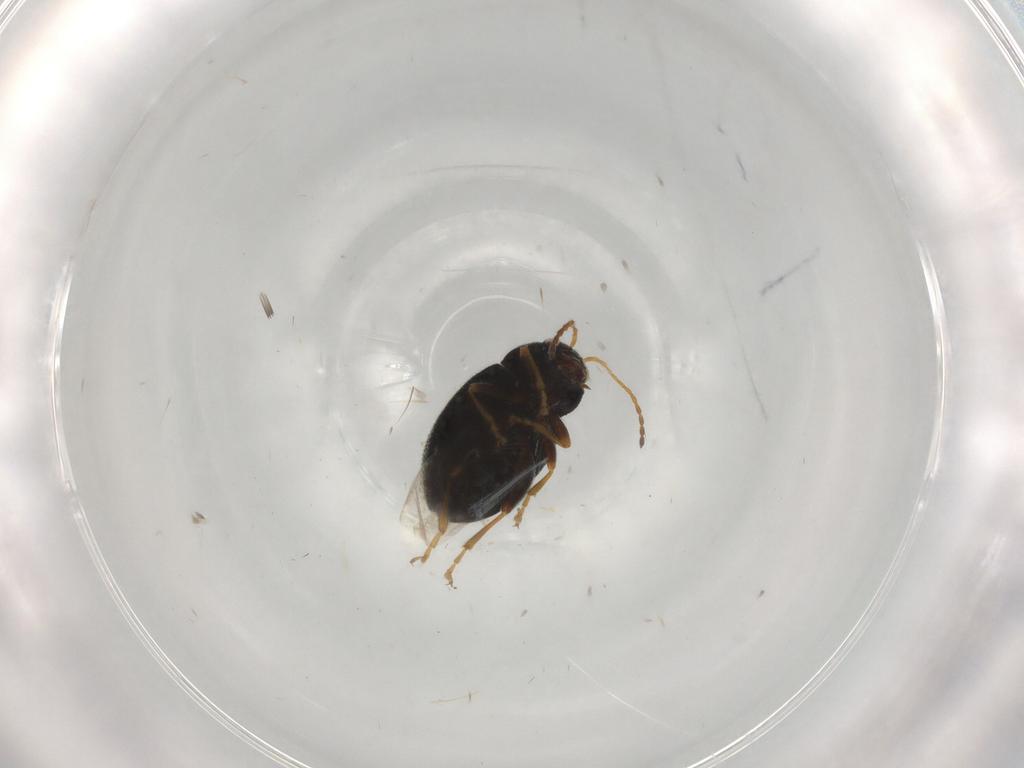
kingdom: Animalia
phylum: Arthropoda
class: Insecta
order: Coleoptera
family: Chrysomelidae
